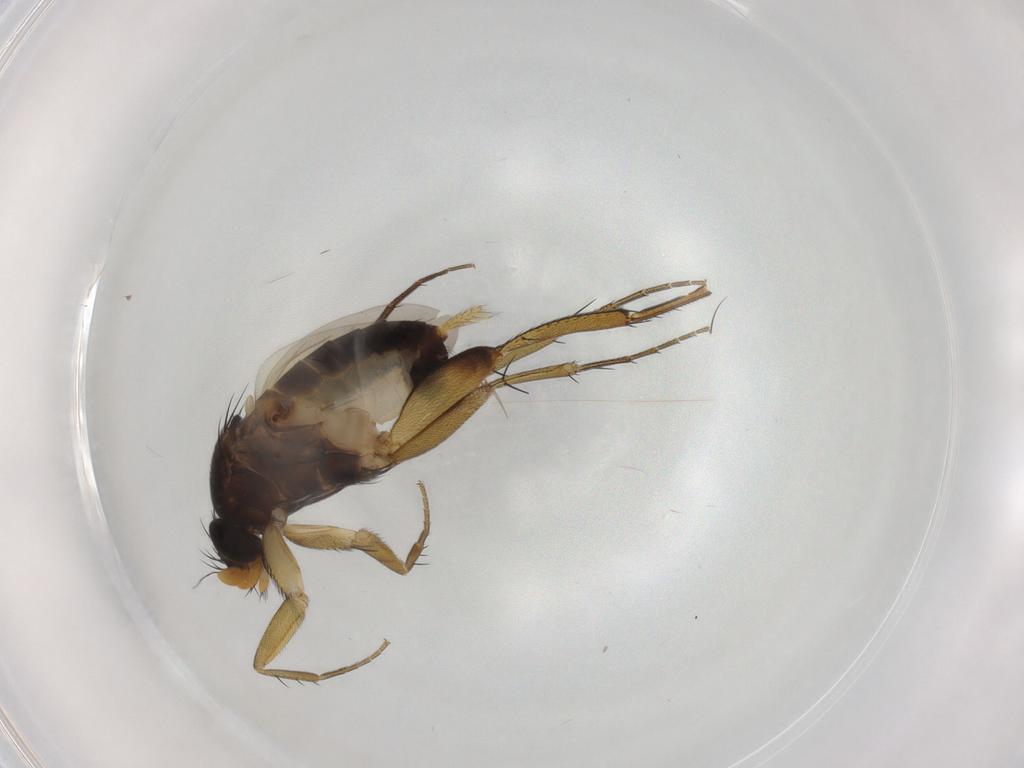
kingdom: Animalia
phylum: Arthropoda
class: Insecta
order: Diptera
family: Phoridae
